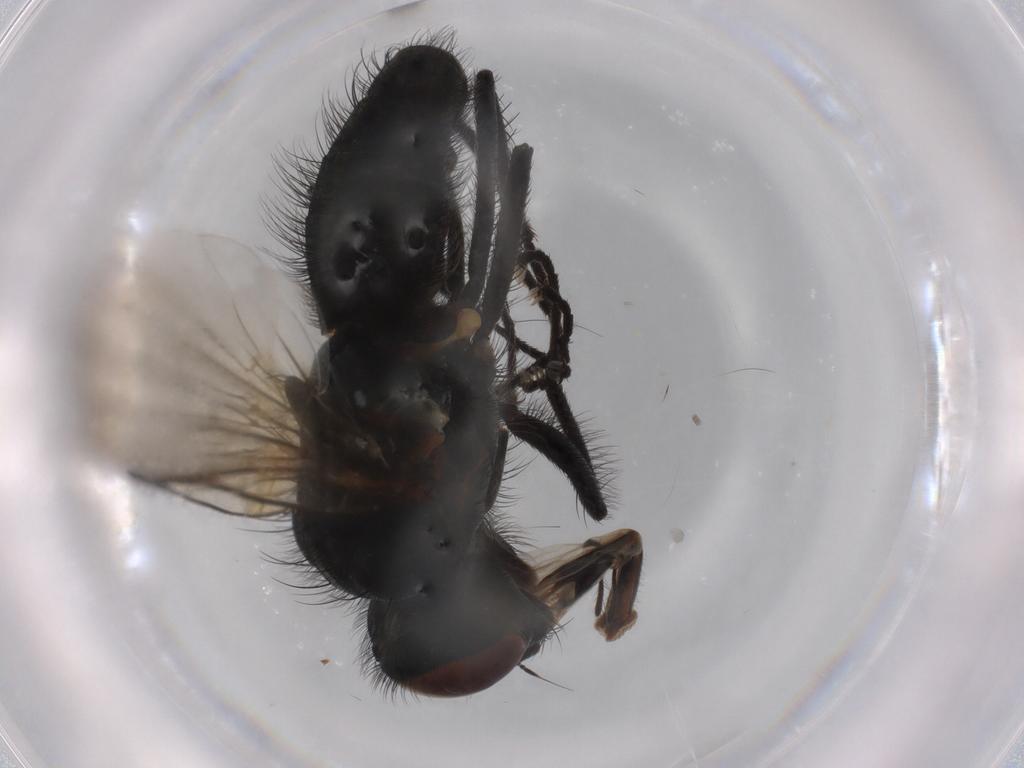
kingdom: Animalia
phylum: Arthropoda
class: Insecta
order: Diptera
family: Anthomyiidae
